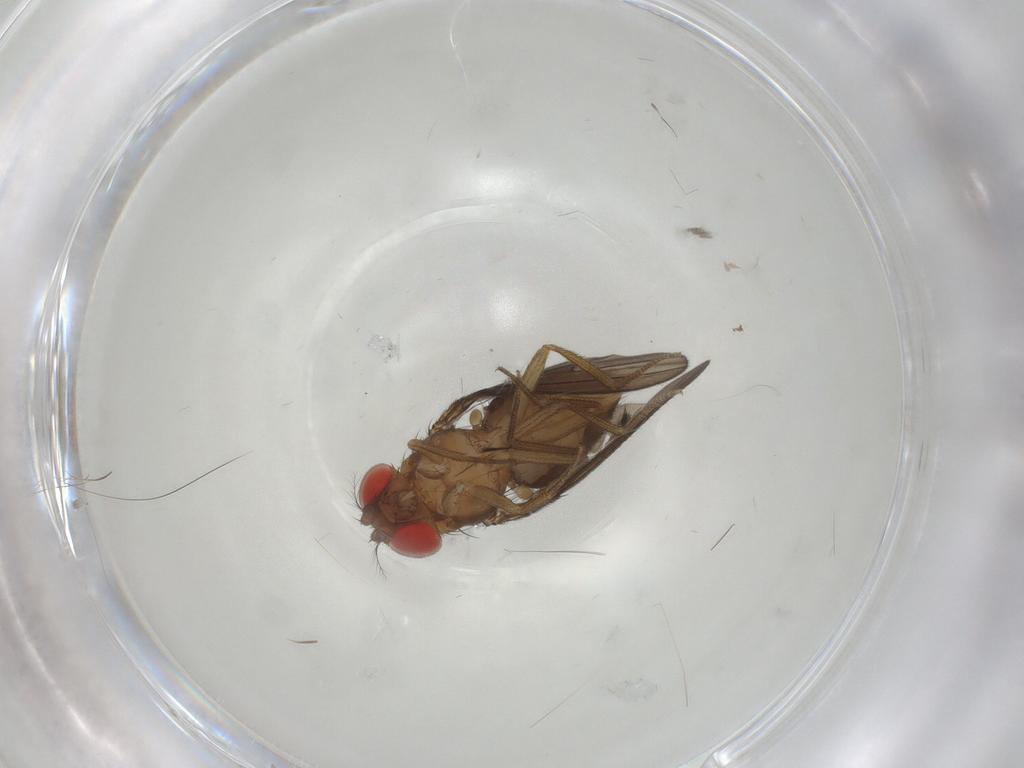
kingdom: Animalia
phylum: Arthropoda
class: Insecta
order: Diptera
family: Drosophilidae
